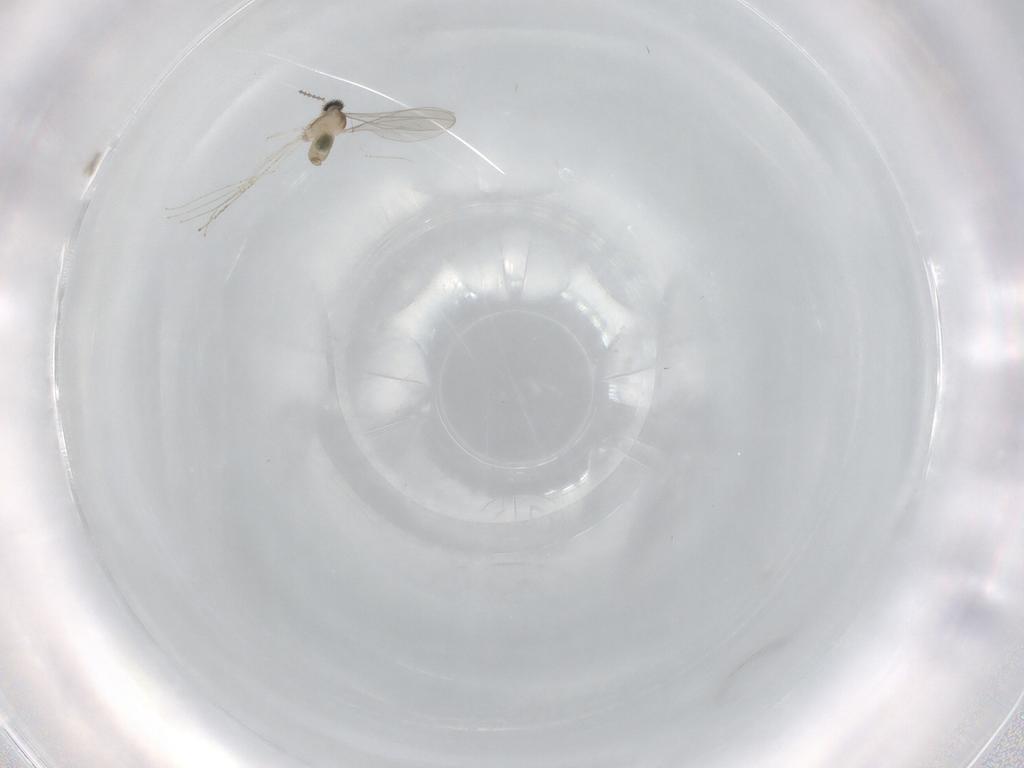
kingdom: Animalia
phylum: Arthropoda
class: Insecta
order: Diptera
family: Cecidomyiidae
